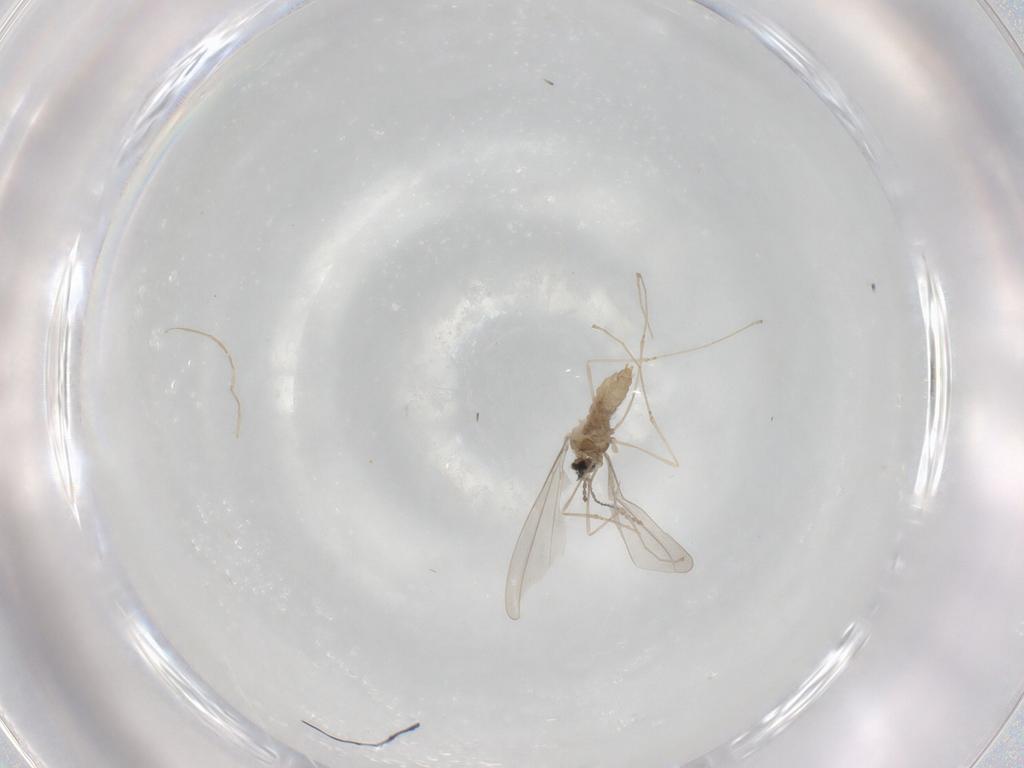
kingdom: Animalia
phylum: Arthropoda
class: Insecta
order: Diptera
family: Cecidomyiidae
